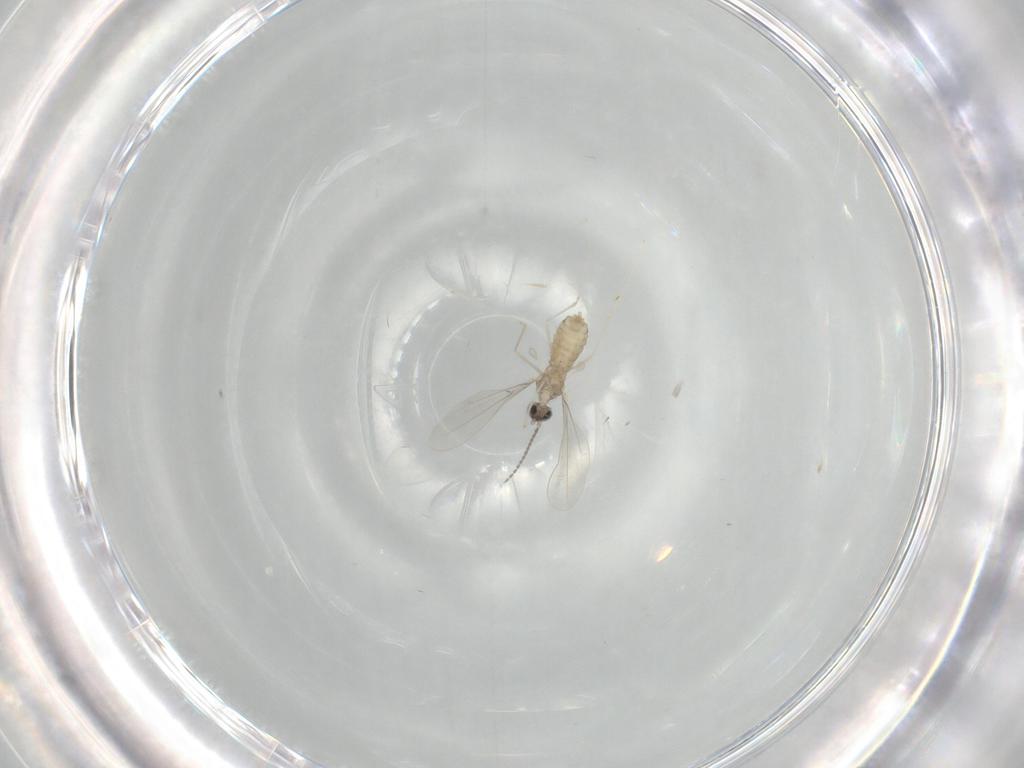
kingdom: Animalia
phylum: Arthropoda
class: Insecta
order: Diptera
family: Cecidomyiidae
